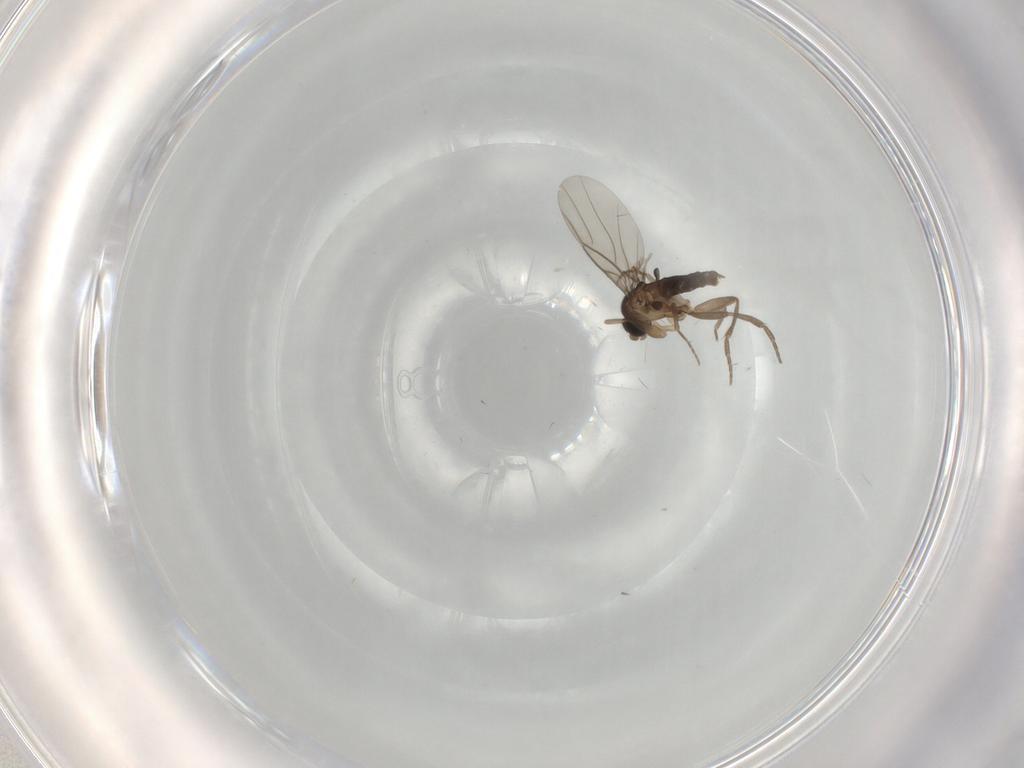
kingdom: Animalia
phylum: Arthropoda
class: Insecta
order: Diptera
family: Phoridae
